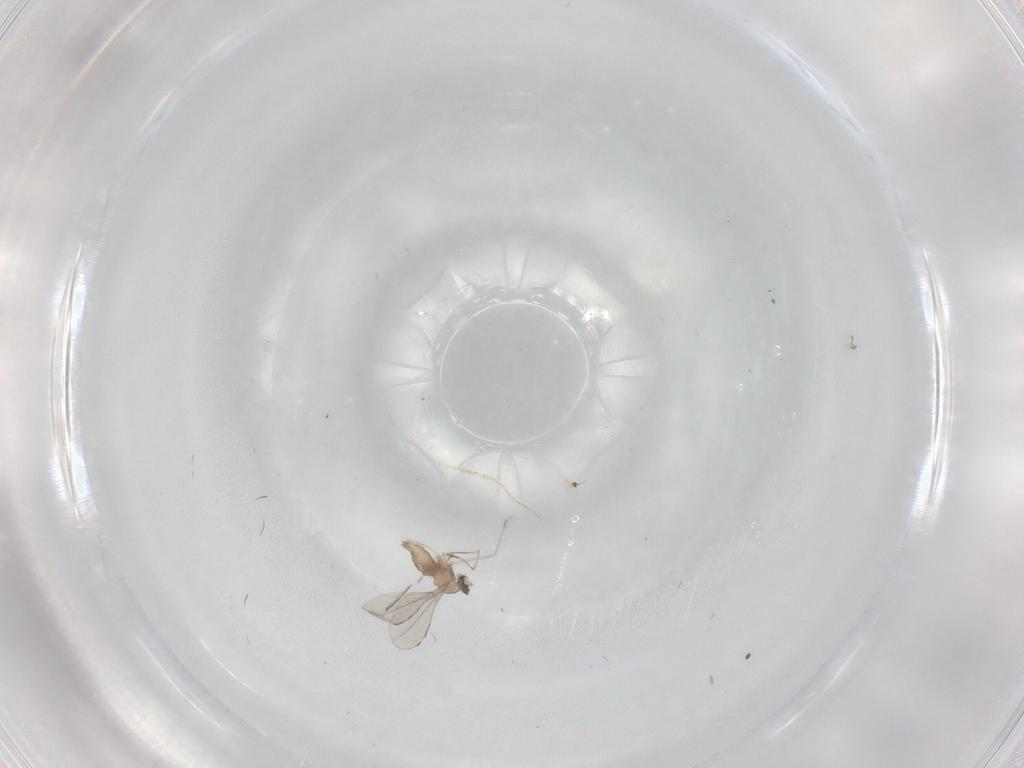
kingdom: Animalia
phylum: Arthropoda
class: Insecta
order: Diptera
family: Cecidomyiidae
